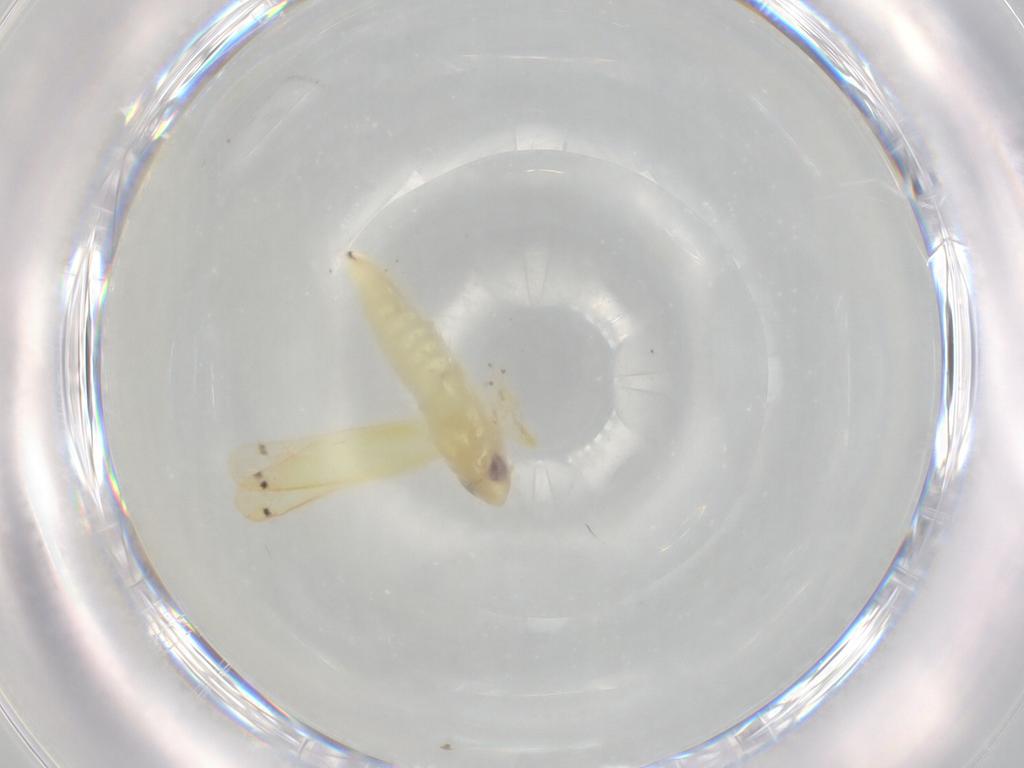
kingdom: Animalia
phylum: Arthropoda
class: Insecta
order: Hemiptera
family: Cicadellidae
